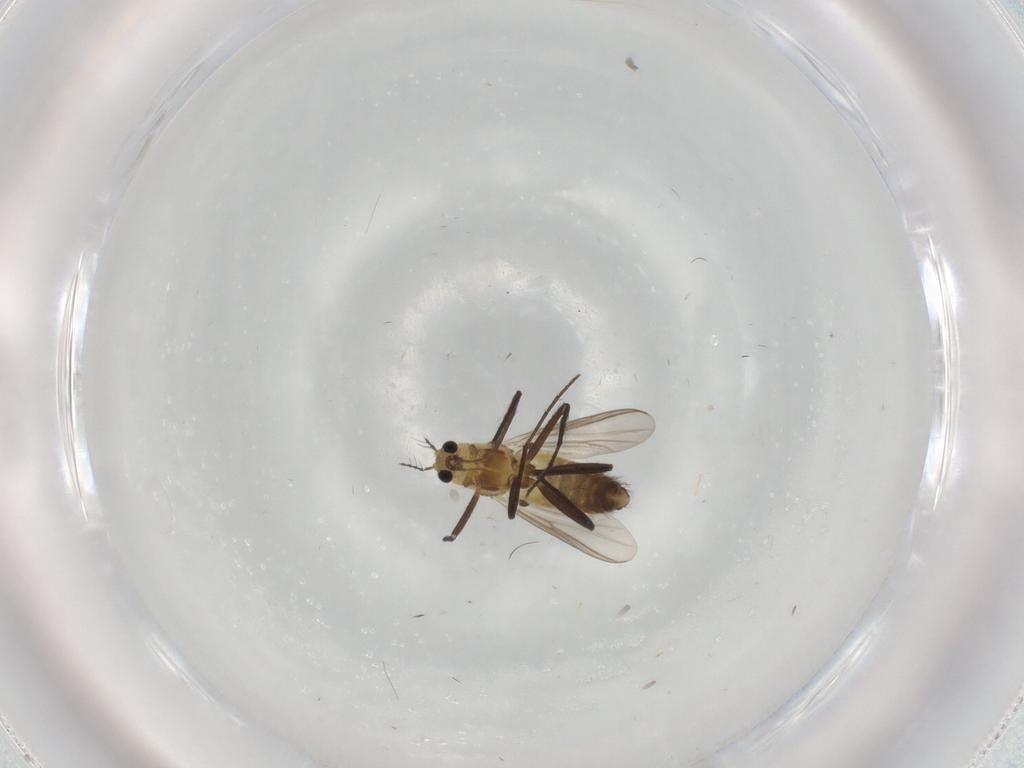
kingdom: Animalia
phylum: Arthropoda
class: Insecta
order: Diptera
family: Chironomidae
